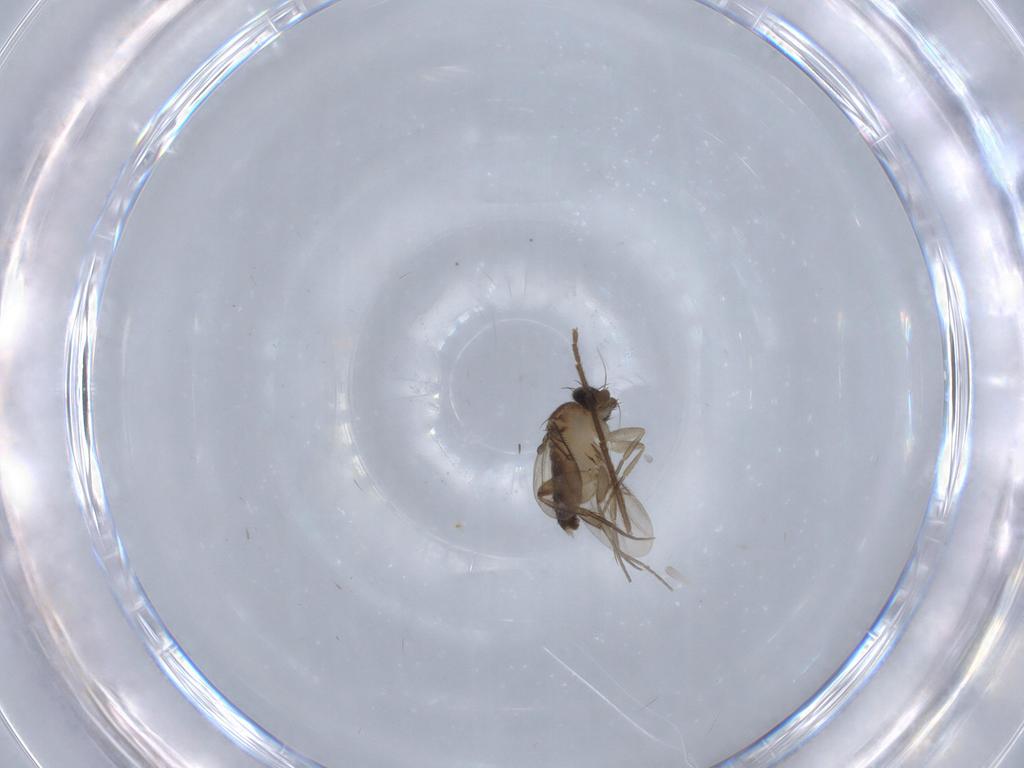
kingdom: Animalia
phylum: Arthropoda
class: Insecta
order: Diptera
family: Phoridae
